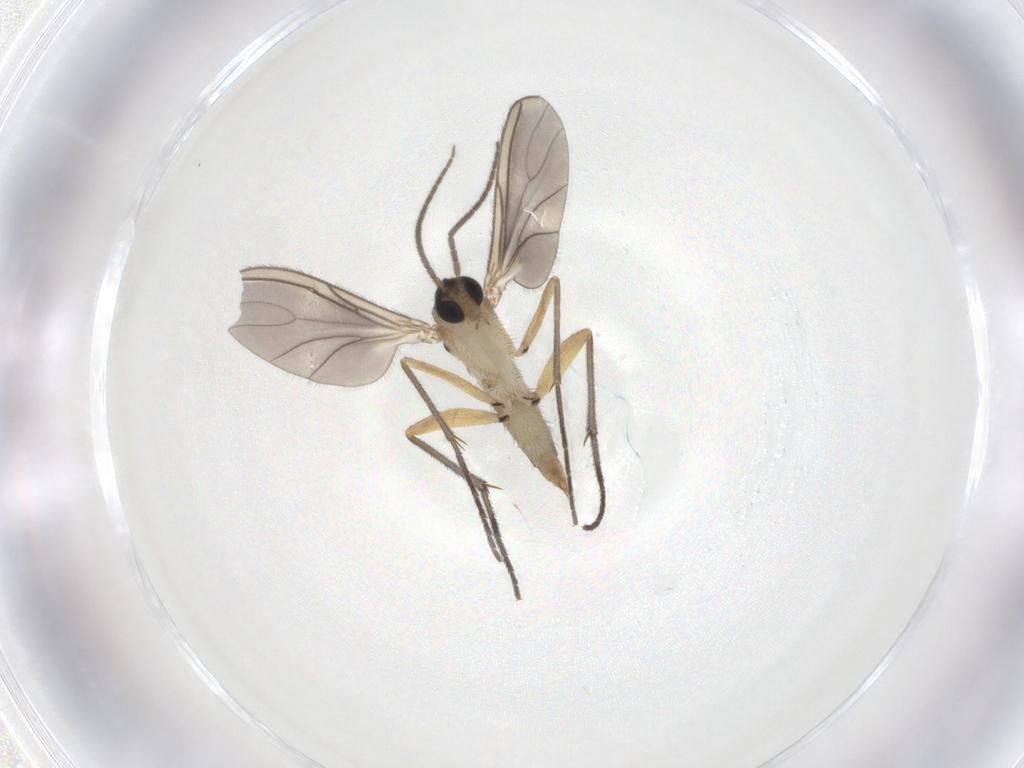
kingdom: Animalia
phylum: Arthropoda
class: Insecta
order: Diptera
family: Sciaridae
